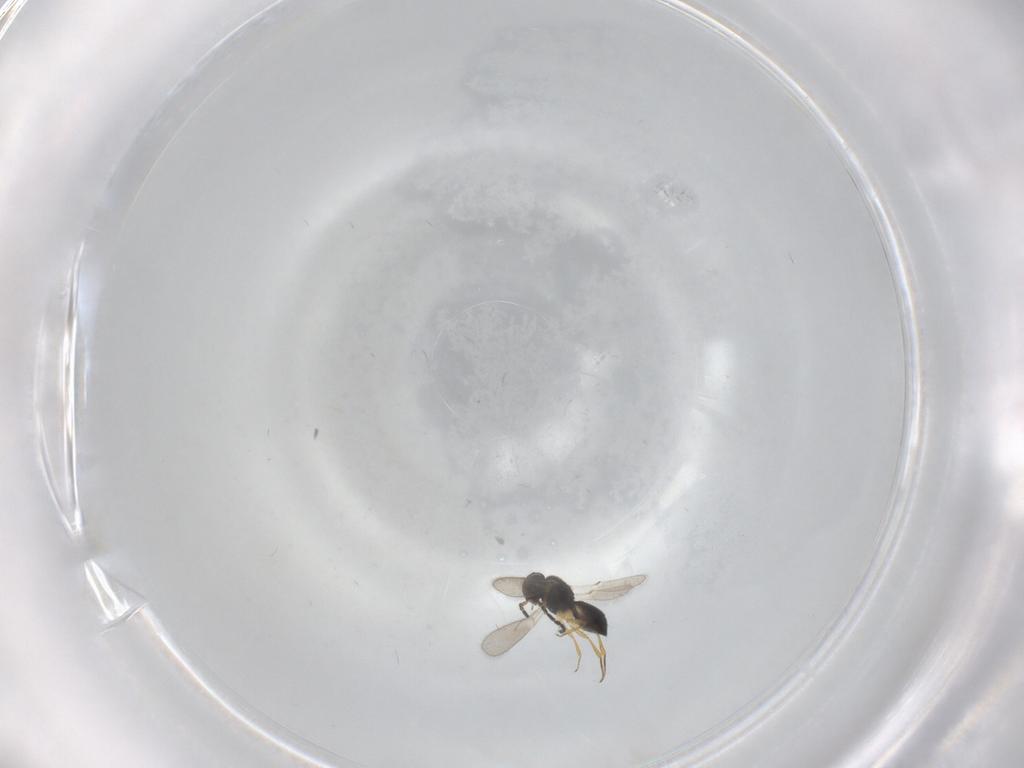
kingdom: Animalia
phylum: Arthropoda
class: Insecta
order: Hymenoptera
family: Scelionidae
